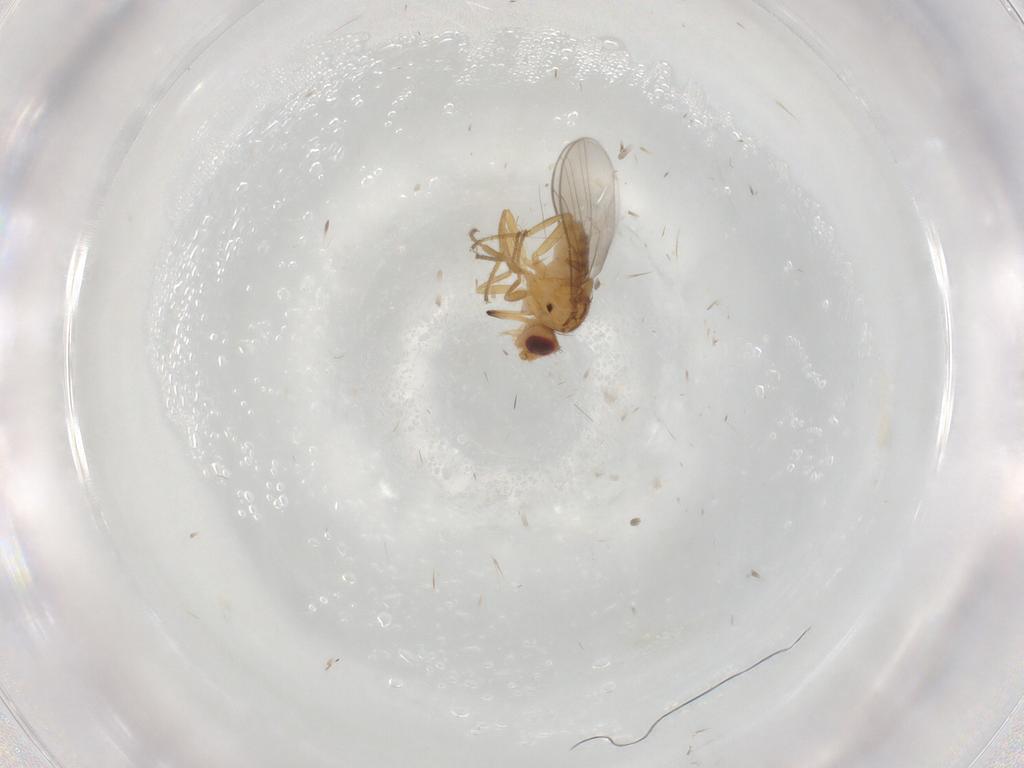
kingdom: Animalia
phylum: Arthropoda
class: Insecta
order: Diptera
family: Chloropidae
